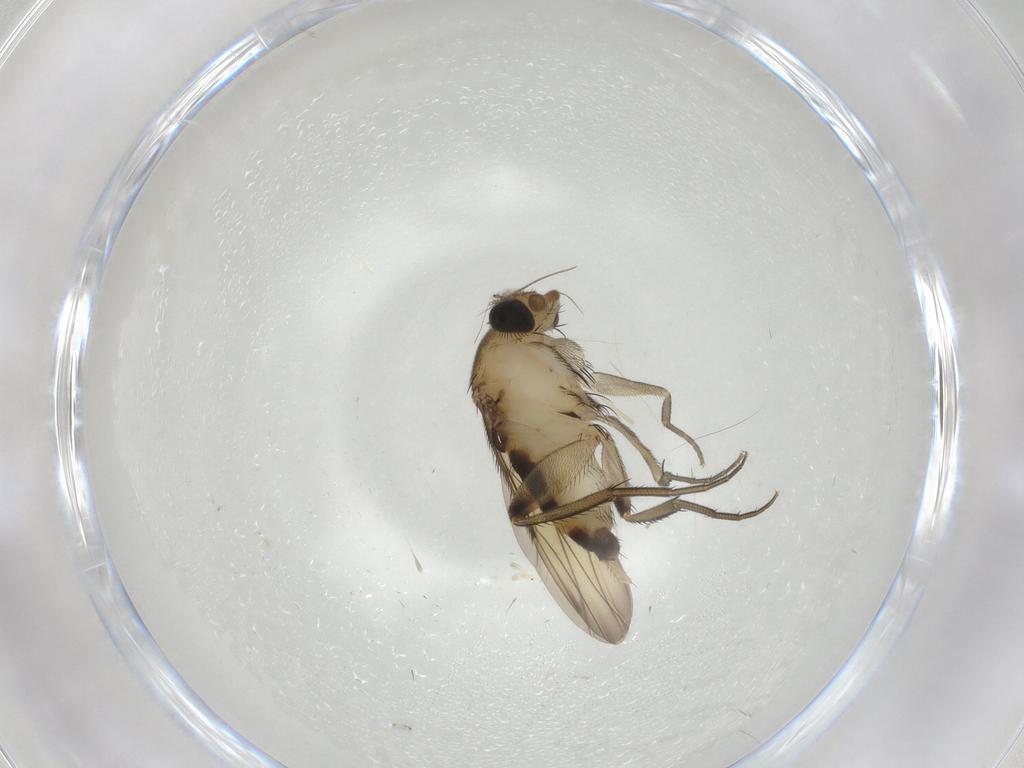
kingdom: Animalia
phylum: Arthropoda
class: Insecta
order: Diptera
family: Phoridae
